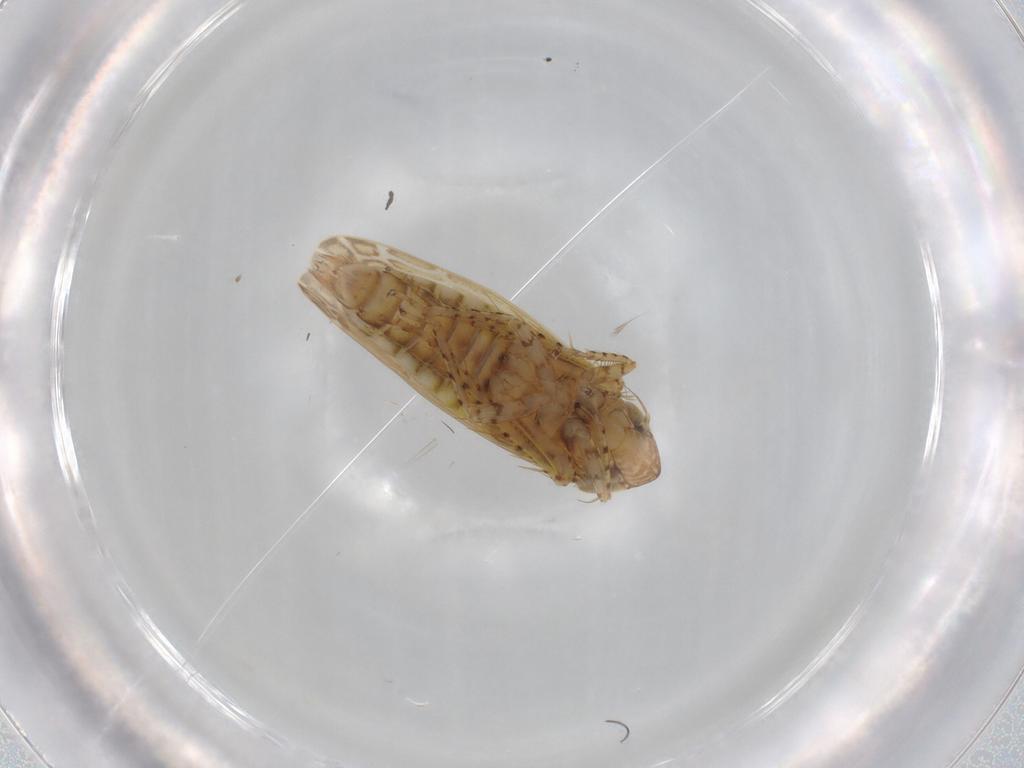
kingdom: Animalia
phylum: Arthropoda
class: Insecta
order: Hemiptera
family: Cicadellidae
